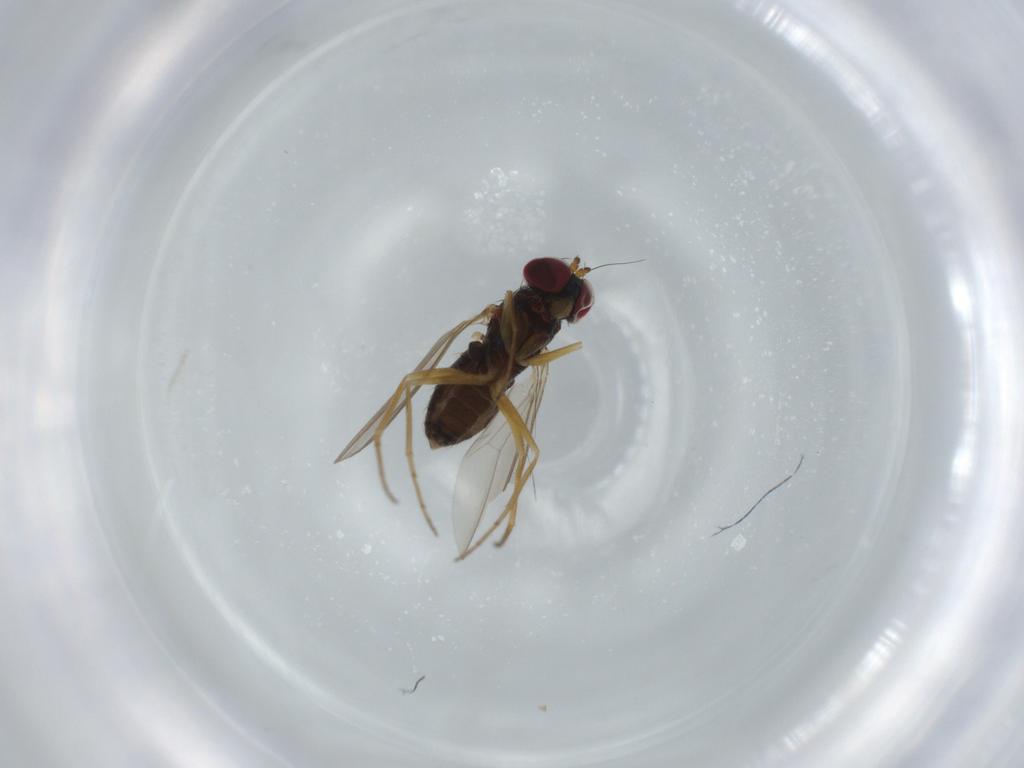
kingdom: Animalia
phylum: Arthropoda
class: Insecta
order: Diptera
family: Dolichopodidae
